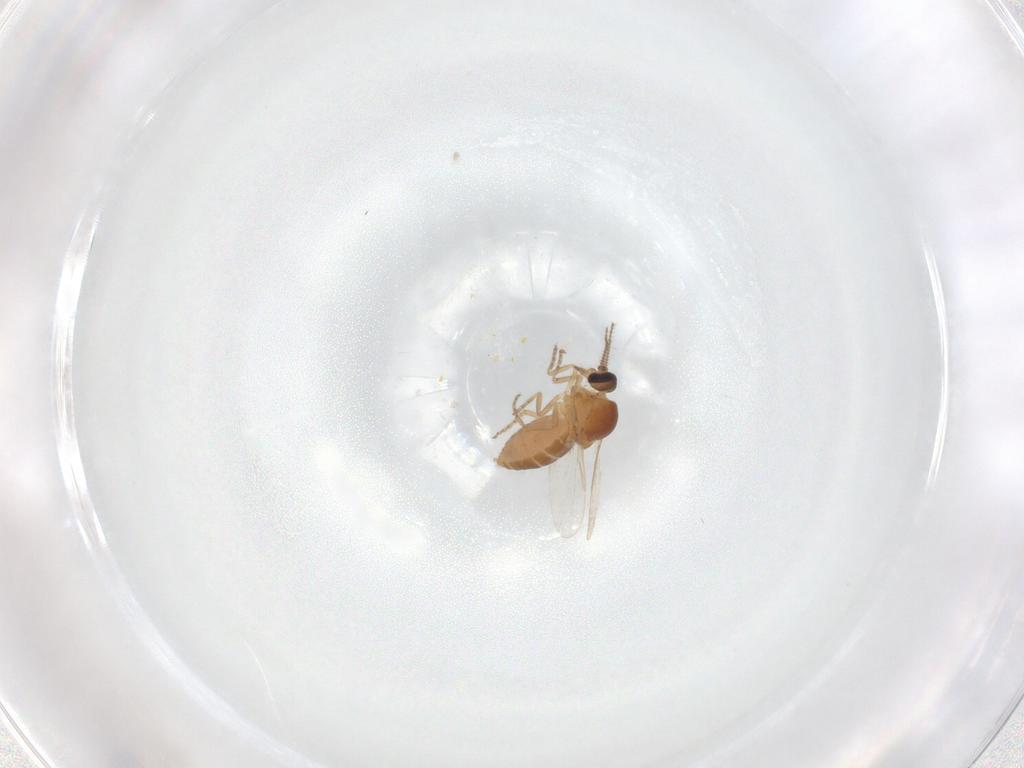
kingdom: Animalia
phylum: Arthropoda
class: Insecta
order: Diptera
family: Ceratopogonidae
